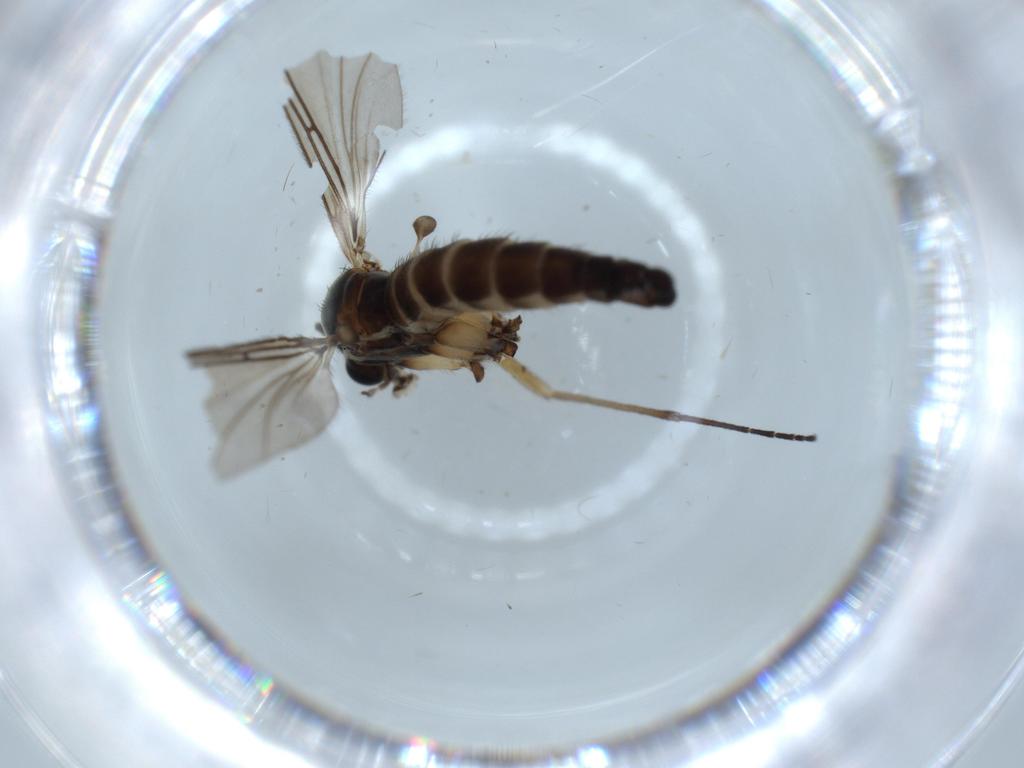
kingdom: Animalia
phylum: Arthropoda
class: Insecta
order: Diptera
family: Sciaridae
